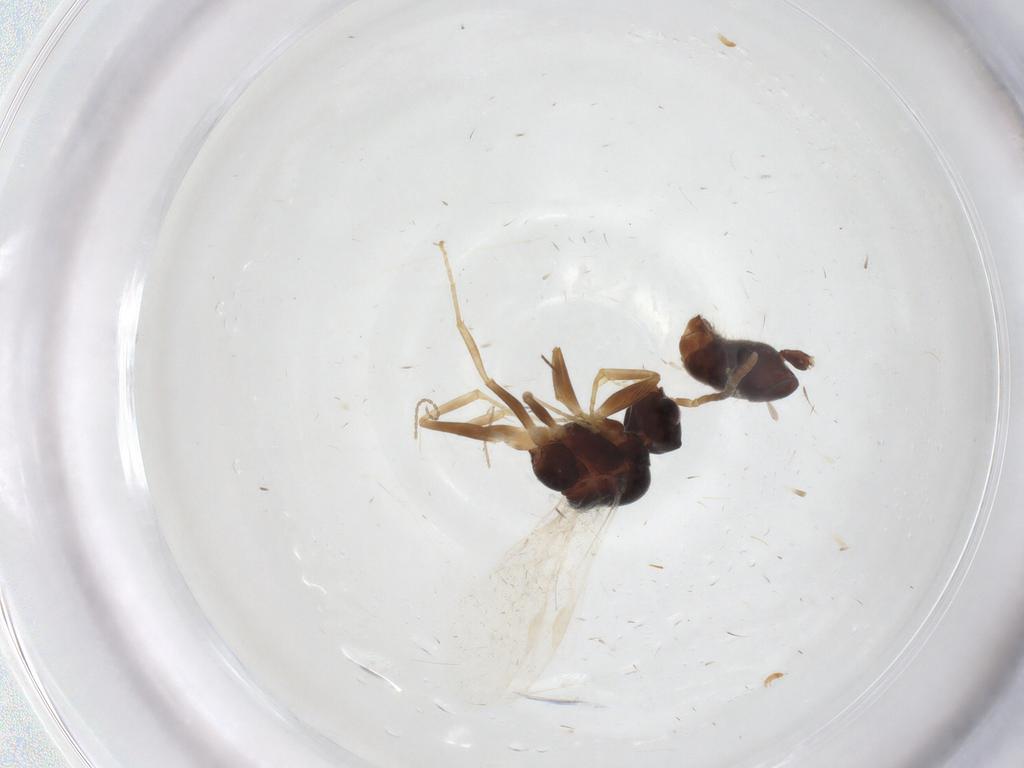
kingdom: Animalia
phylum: Arthropoda
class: Insecta
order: Hymenoptera
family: Formicidae
